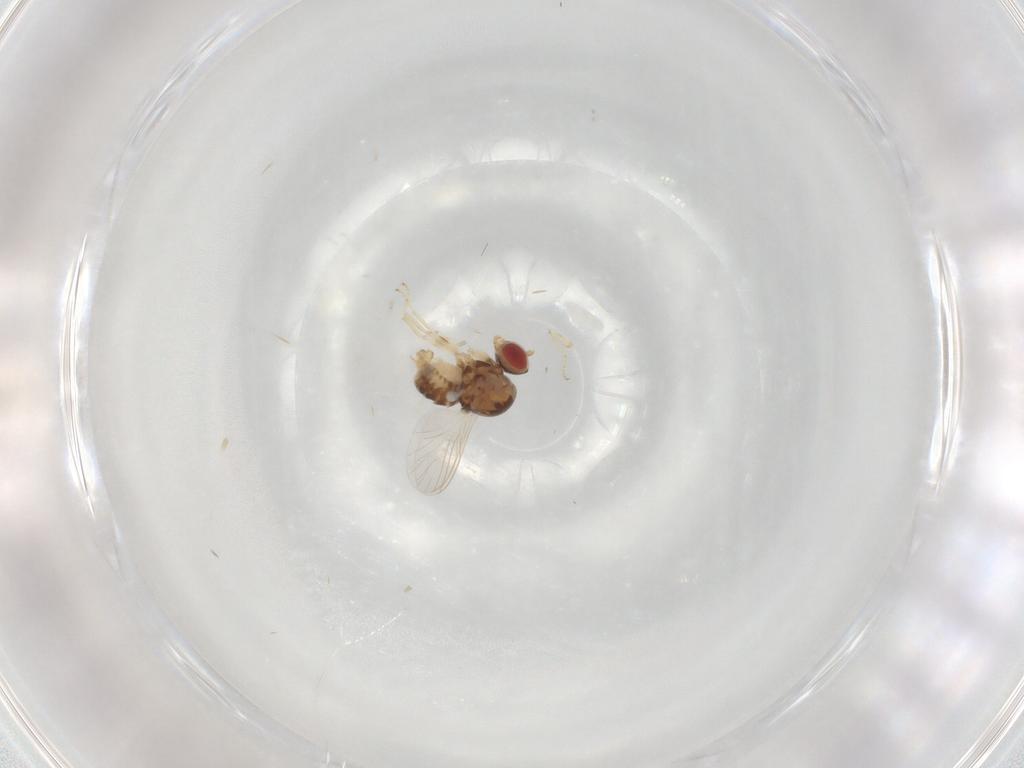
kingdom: Animalia
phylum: Arthropoda
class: Insecta
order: Diptera
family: Bombyliidae
